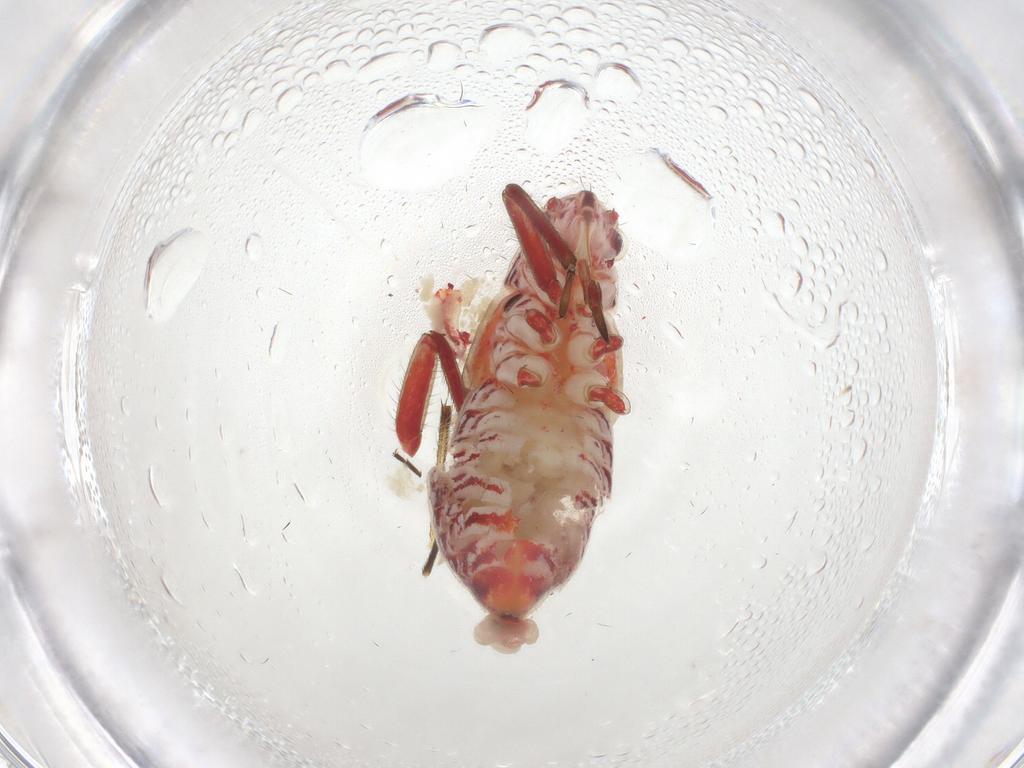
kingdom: Animalia
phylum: Arthropoda
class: Insecta
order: Hemiptera
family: Miridae
